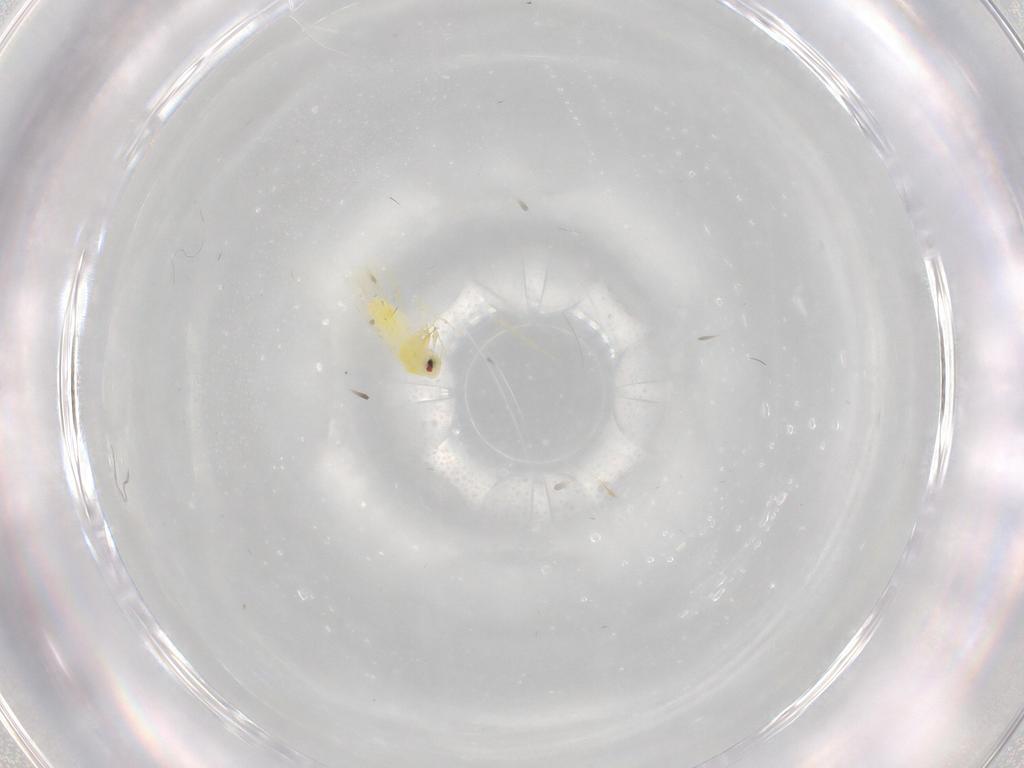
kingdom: Animalia
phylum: Arthropoda
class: Insecta
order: Hemiptera
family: Aleyrodidae
